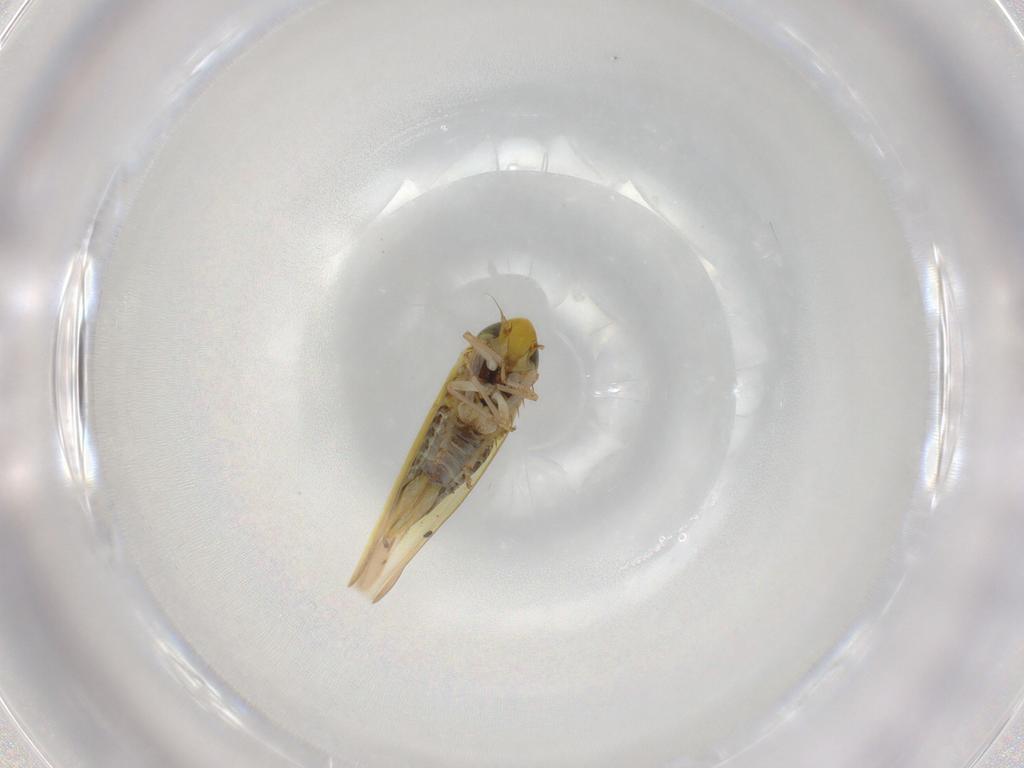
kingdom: Animalia
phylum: Arthropoda
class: Insecta
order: Hemiptera
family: Cicadellidae
